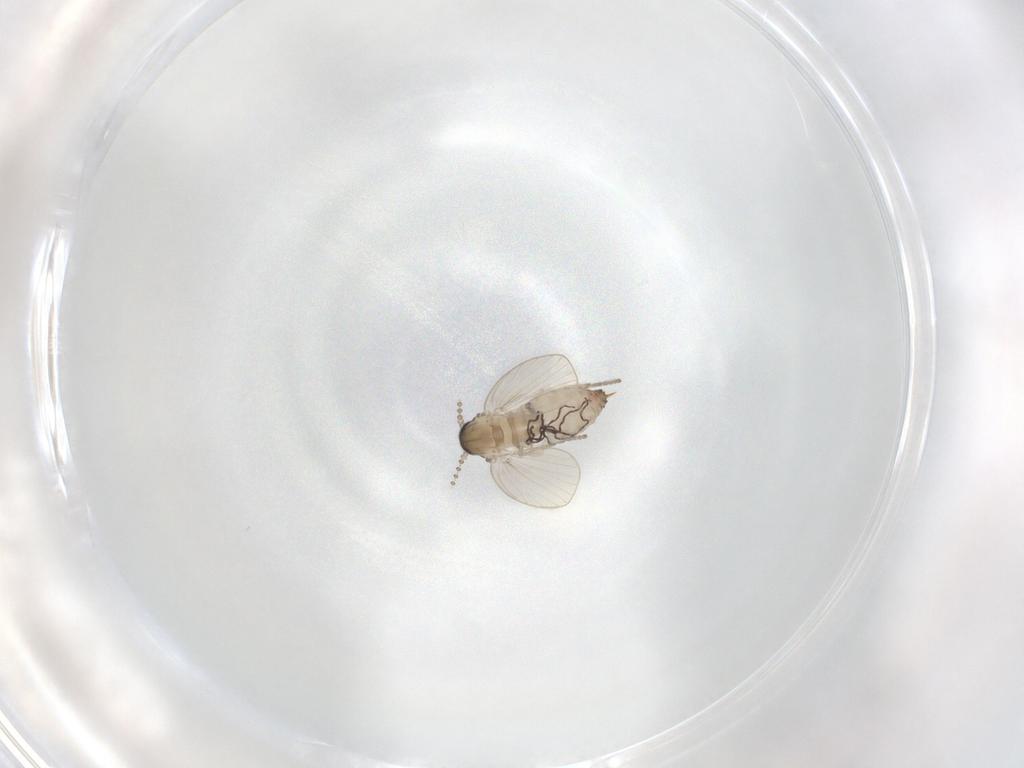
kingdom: Animalia
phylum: Arthropoda
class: Insecta
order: Diptera
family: Psychodidae
